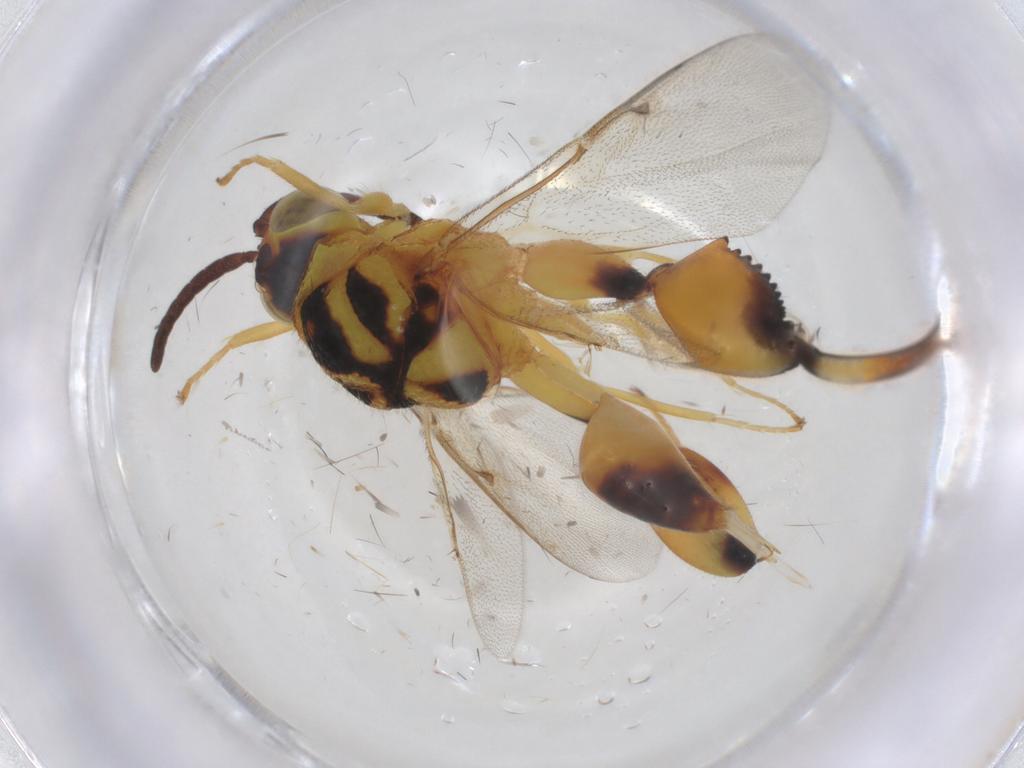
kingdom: Animalia
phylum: Arthropoda
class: Insecta
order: Hymenoptera
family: Chalcididae
